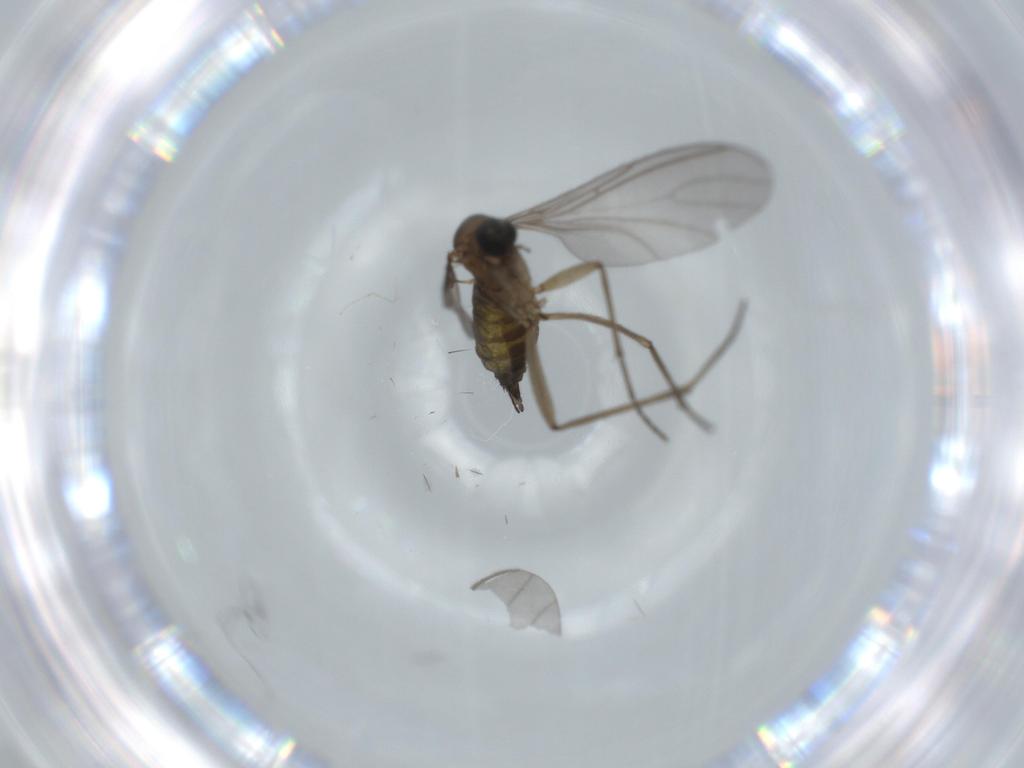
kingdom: Animalia
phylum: Arthropoda
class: Insecta
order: Diptera
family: Sciaridae
